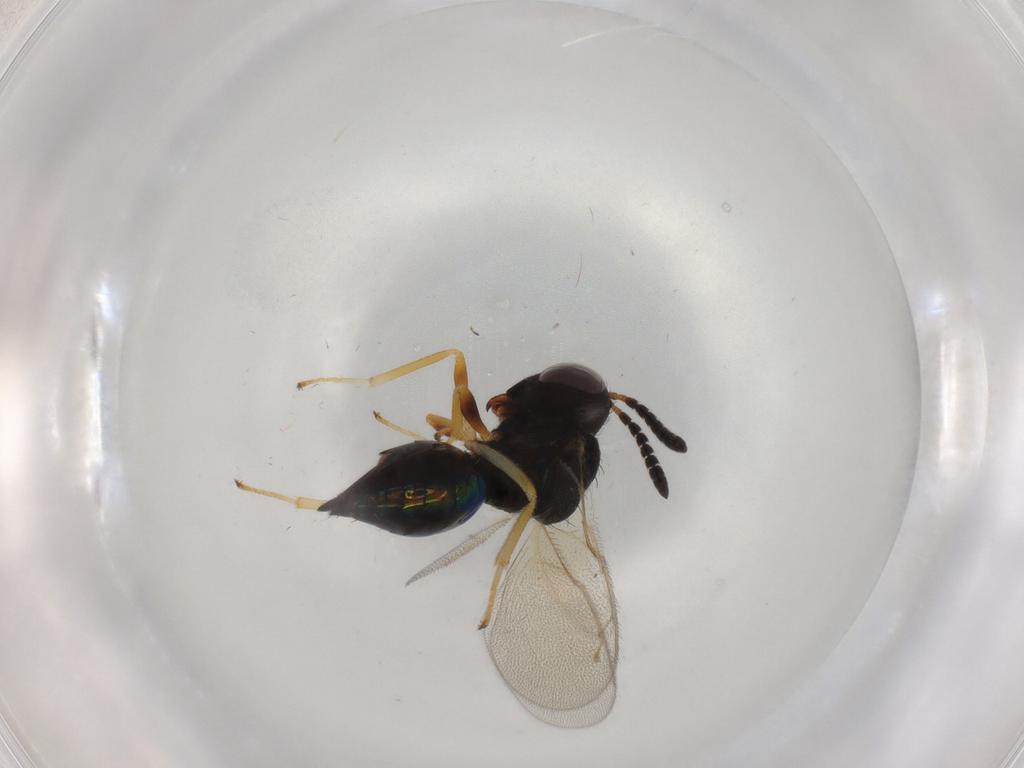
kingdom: Animalia
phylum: Arthropoda
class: Insecta
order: Hymenoptera
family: Pteromalidae
